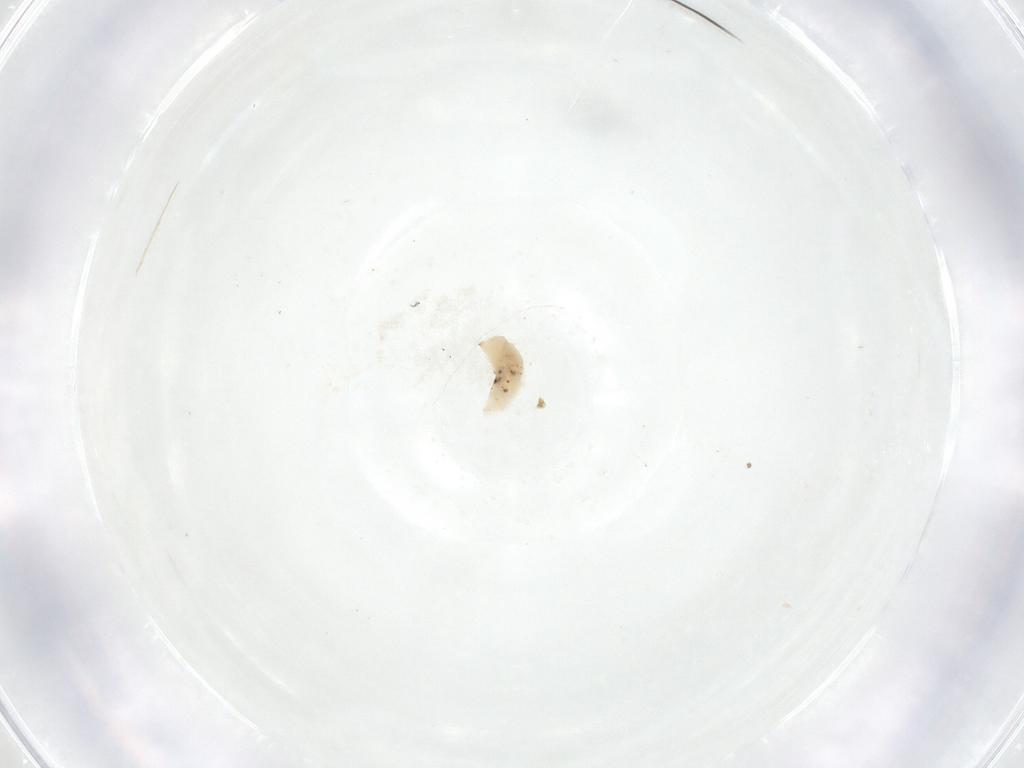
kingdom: Animalia
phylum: Arthropoda
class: Insecta
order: Hymenoptera
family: Eulophidae
